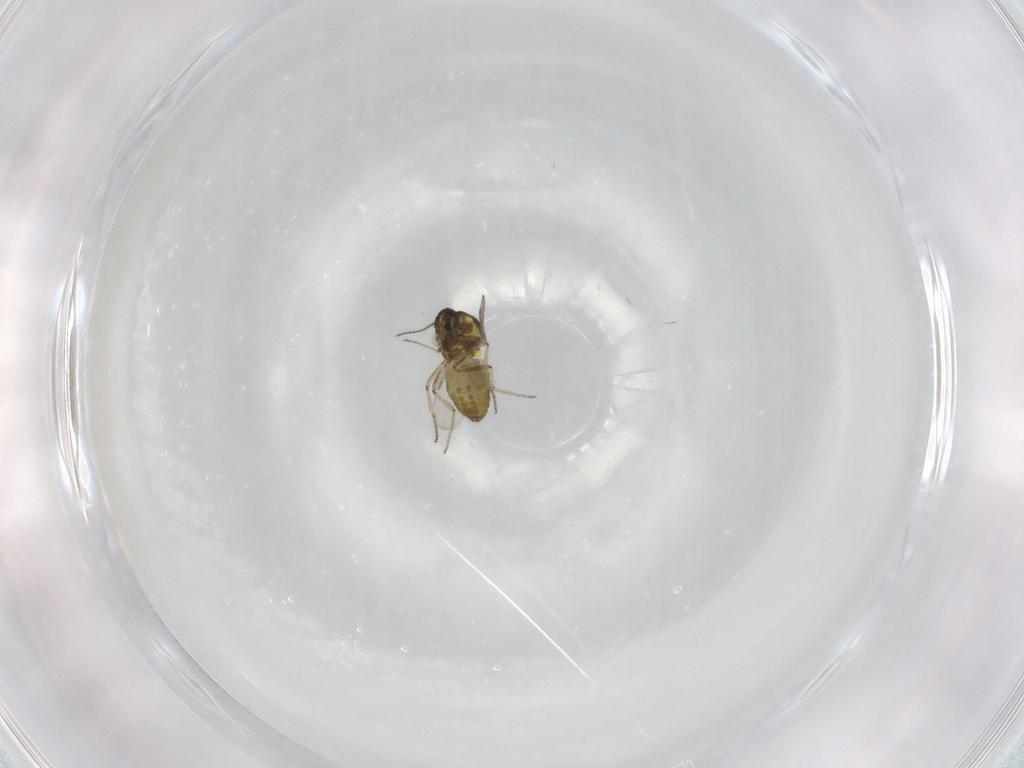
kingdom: Animalia
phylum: Arthropoda
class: Insecta
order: Diptera
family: Ceratopogonidae
